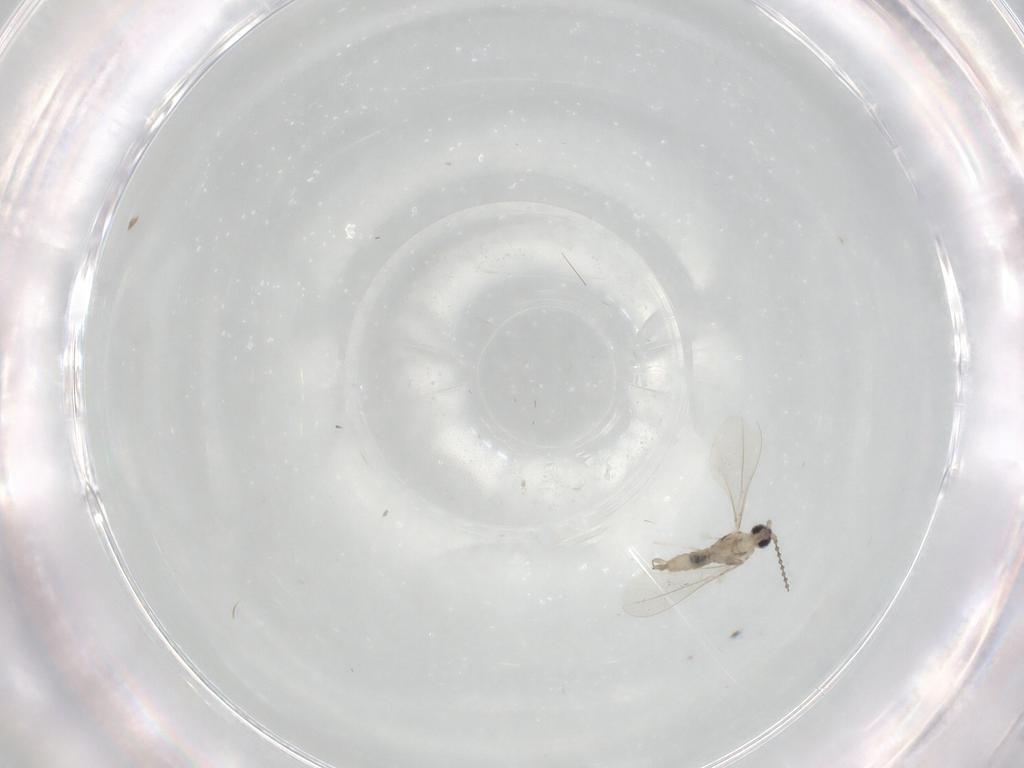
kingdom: Animalia
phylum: Arthropoda
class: Insecta
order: Diptera
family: Cecidomyiidae
